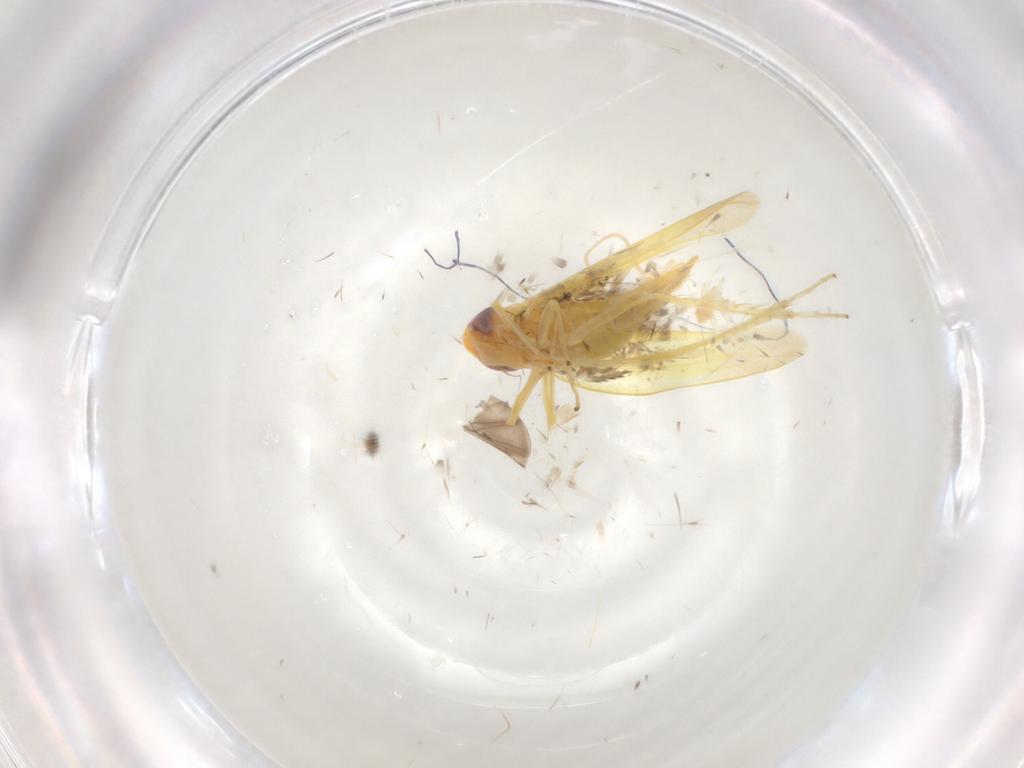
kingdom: Animalia
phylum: Arthropoda
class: Insecta
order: Hemiptera
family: Cicadellidae
